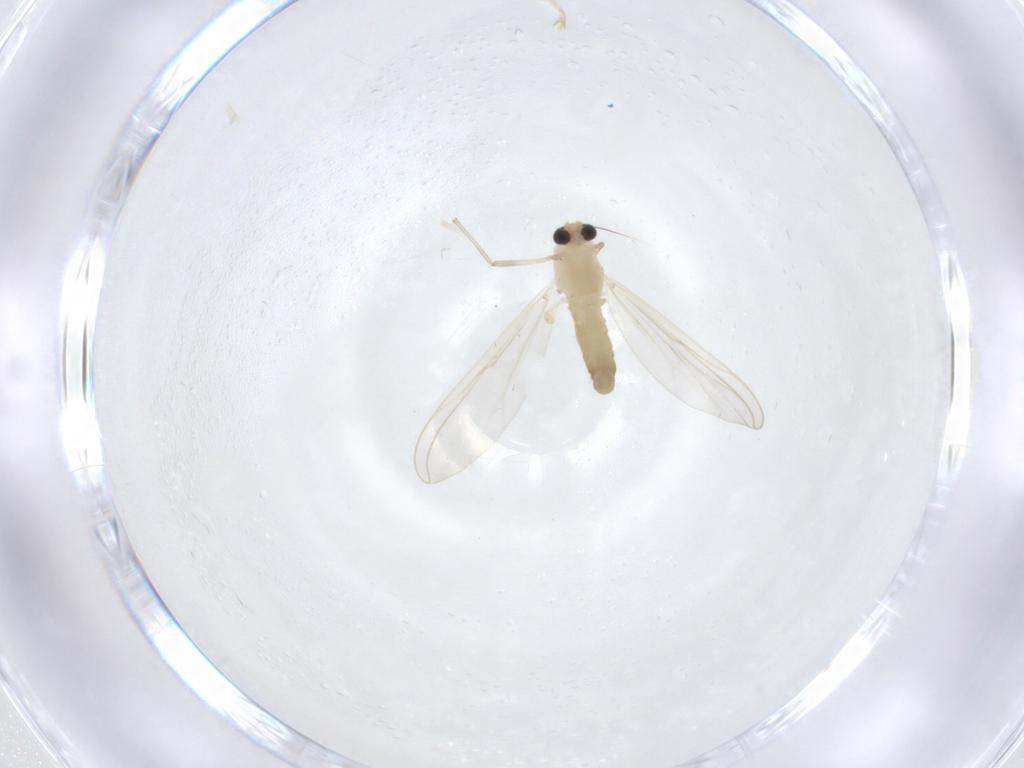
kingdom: Animalia
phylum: Arthropoda
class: Insecta
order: Diptera
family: Chironomidae
